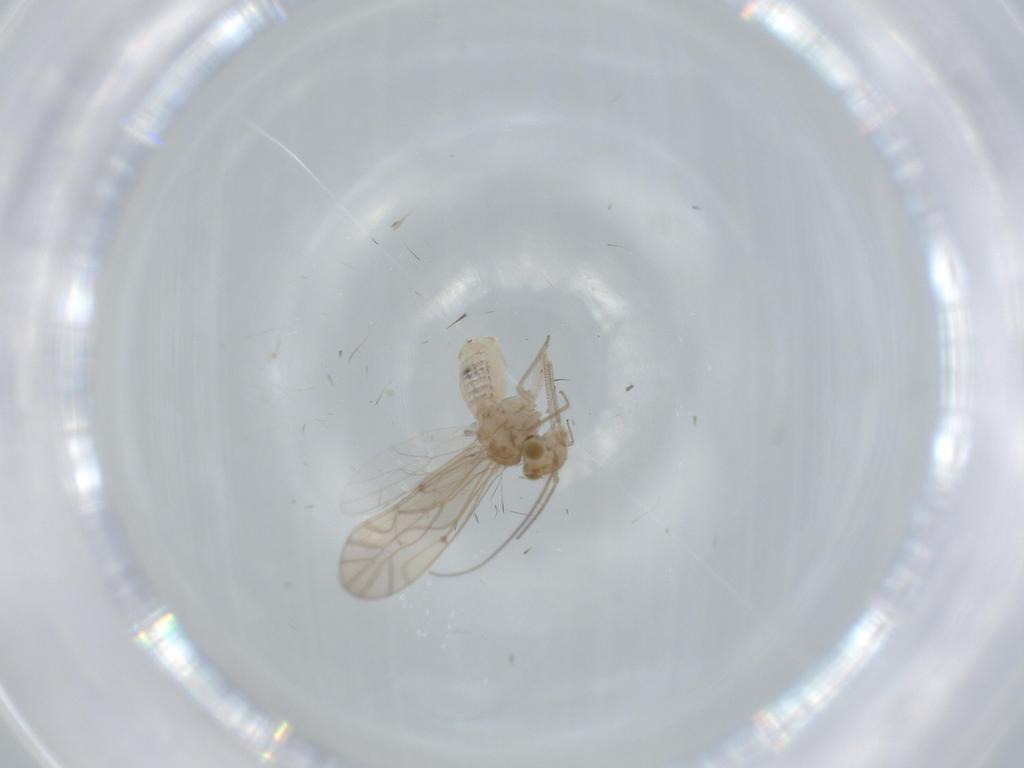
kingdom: Animalia
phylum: Arthropoda
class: Insecta
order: Psocodea
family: Lachesillidae
